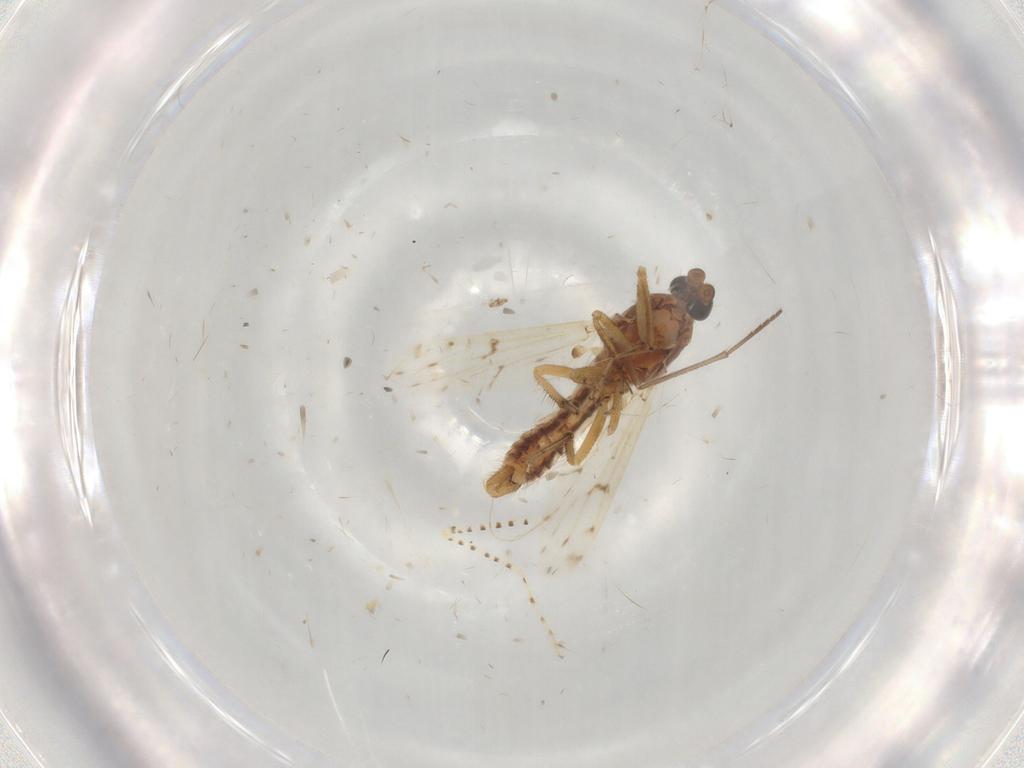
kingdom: Animalia
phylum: Arthropoda
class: Insecta
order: Diptera
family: Ceratopogonidae
